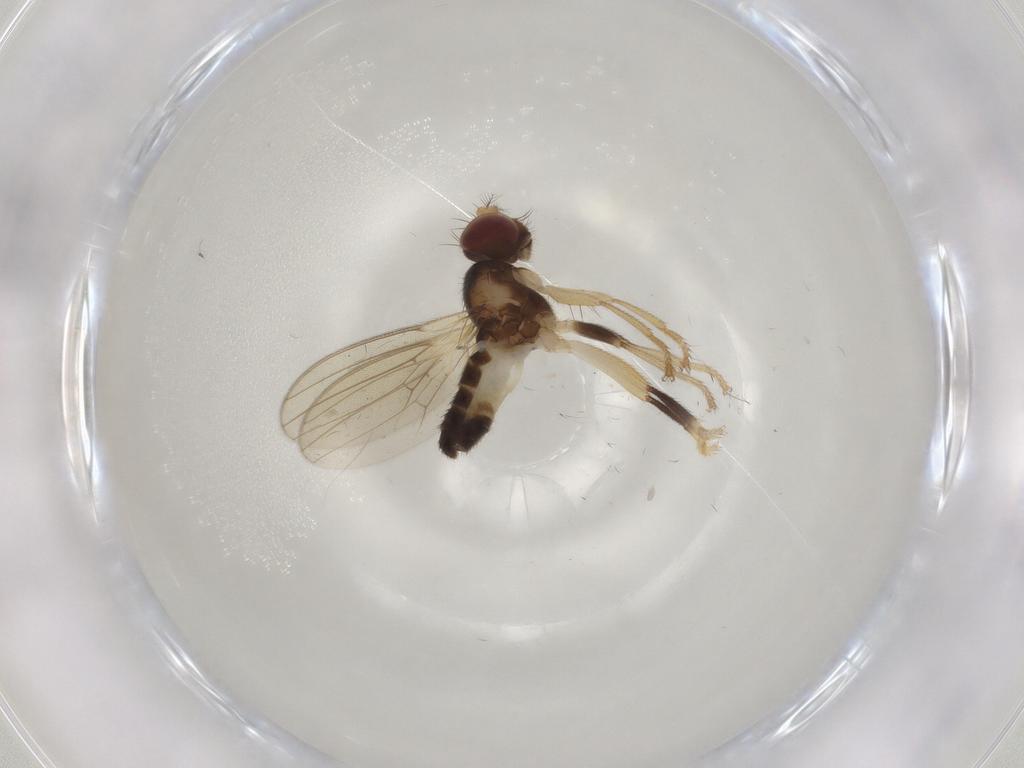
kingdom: Animalia
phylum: Arthropoda
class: Insecta
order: Diptera
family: Periscelididae
